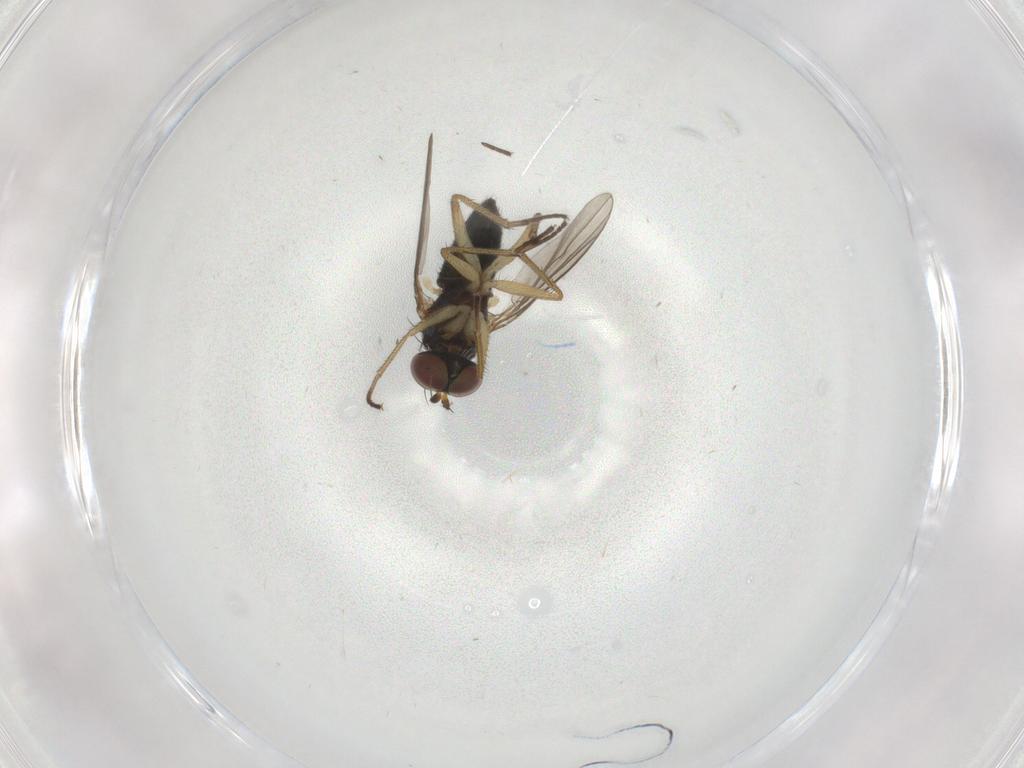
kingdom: Animalia
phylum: Arthropoda
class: Insecta
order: Diptera
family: Dolichopodidae
